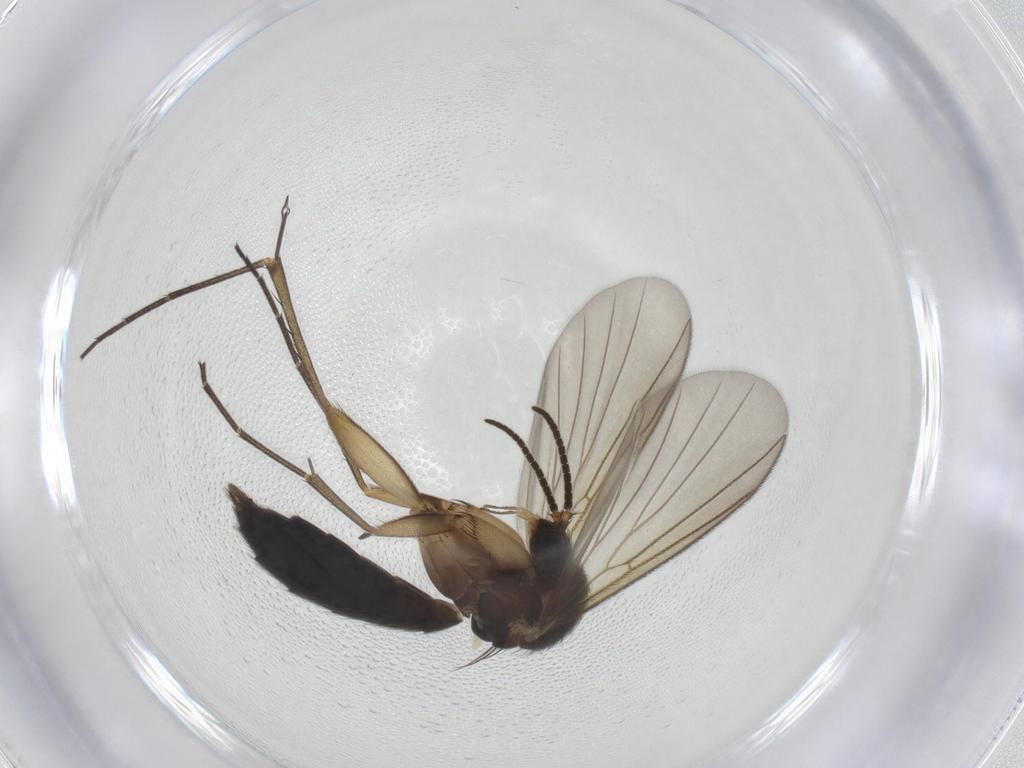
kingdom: Animalia
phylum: Arthropoda
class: Insecta
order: Diptera
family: Mycetophilidae
